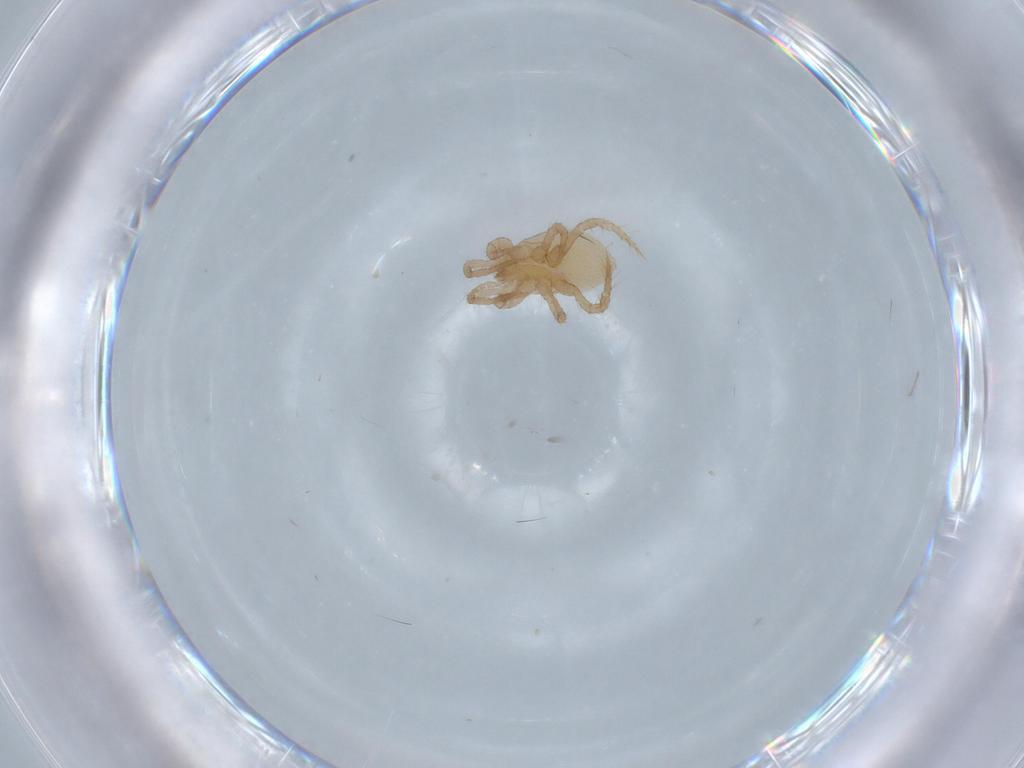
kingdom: Animalia
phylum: Arthropoda
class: Arachnida
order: Mesostigmata
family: Parasitidae
